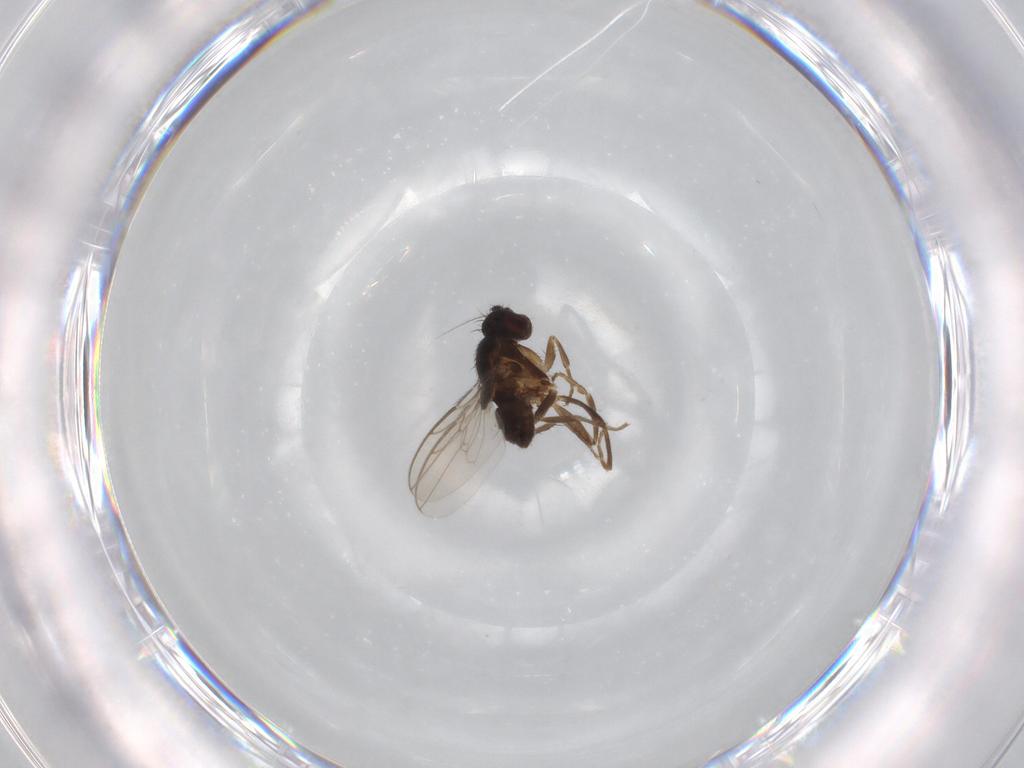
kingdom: Animalia
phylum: Arthropoda
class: Insecta
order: Diptera
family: Sphaeroceridae
